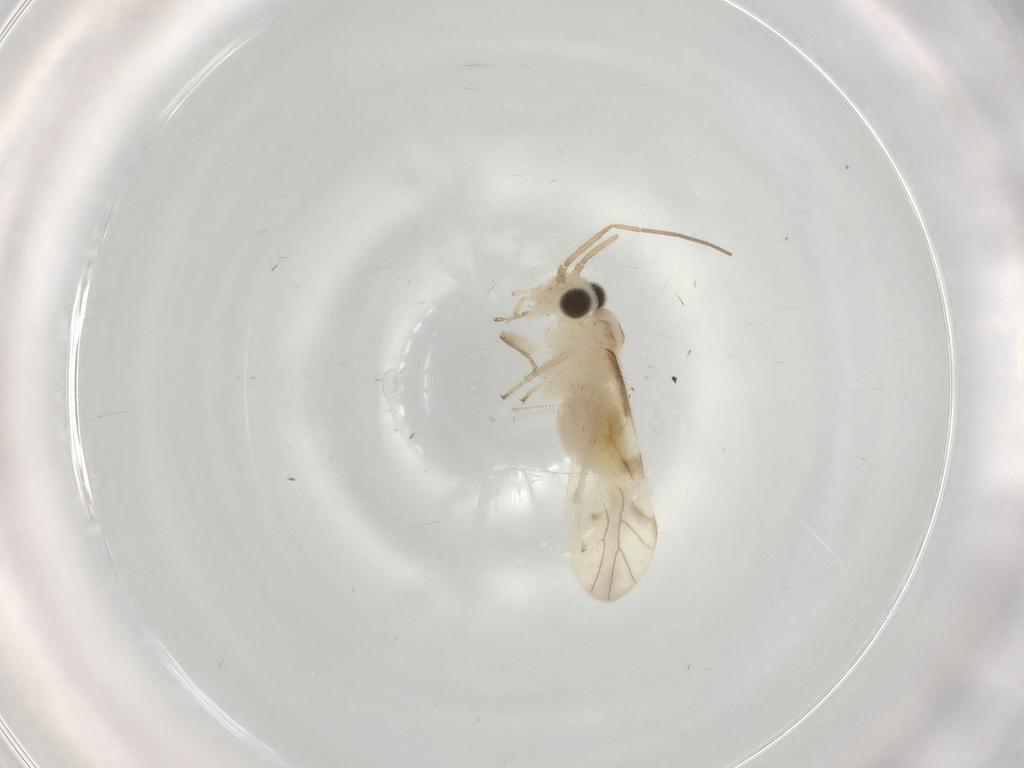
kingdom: Animalia
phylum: Arthropoda
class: Insecta
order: Psocodea
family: Caeciliusidae
